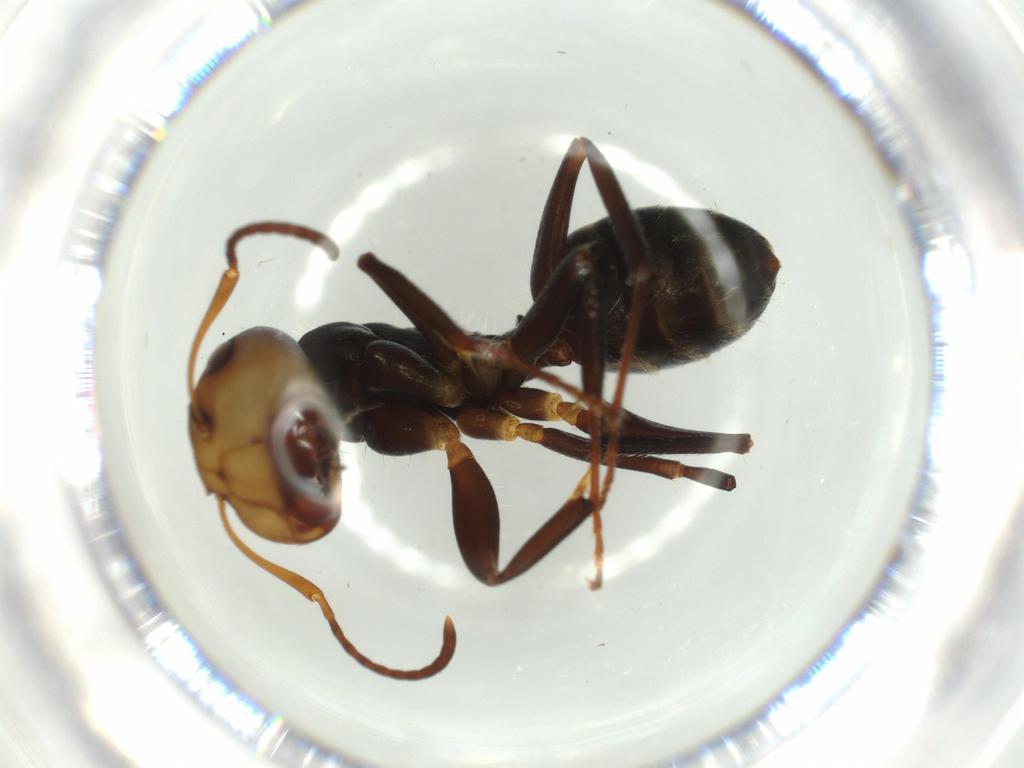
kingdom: Animalia
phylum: Arthropoda
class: Insecta
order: Hymenoptera
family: Formicidae
